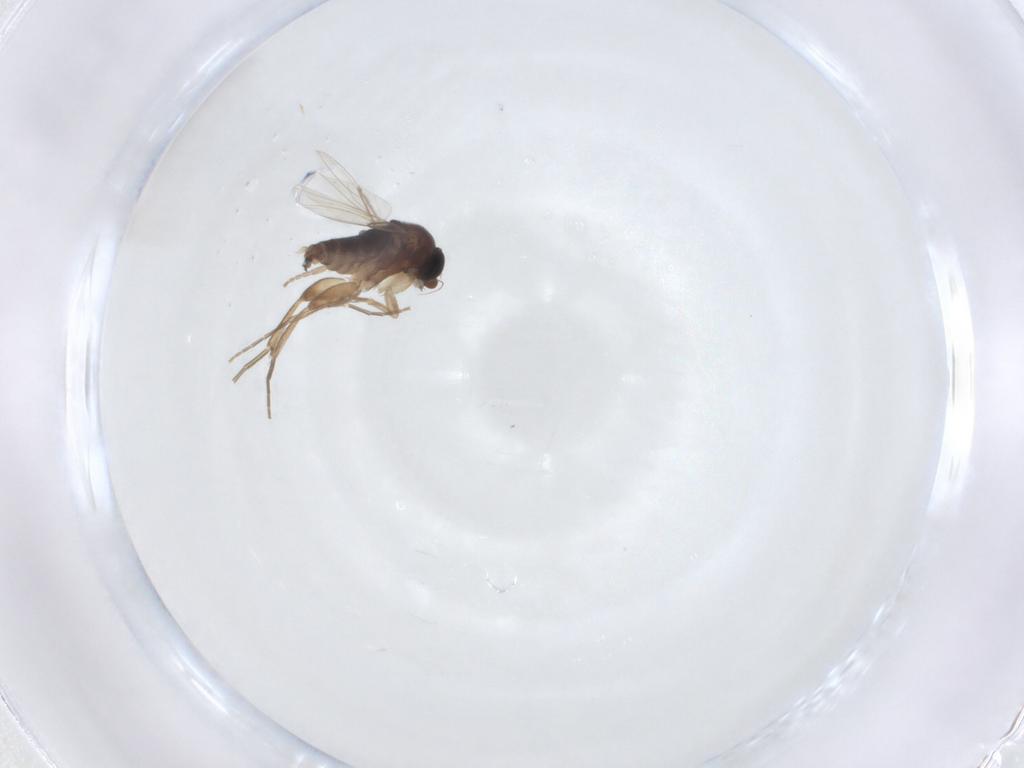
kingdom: Animalia
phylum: Arthropoda
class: Insecta
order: Diptera
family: Phoridae
